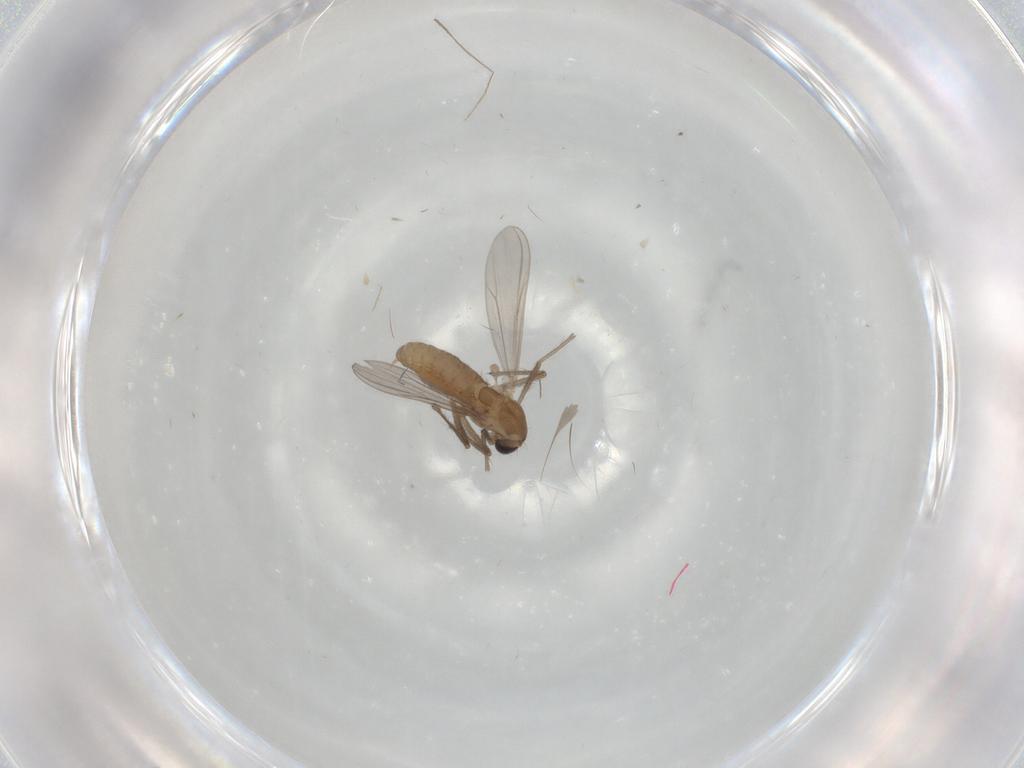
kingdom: Animalia
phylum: Arthropoda
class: Insecta
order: Diptera
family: Chironomidae
